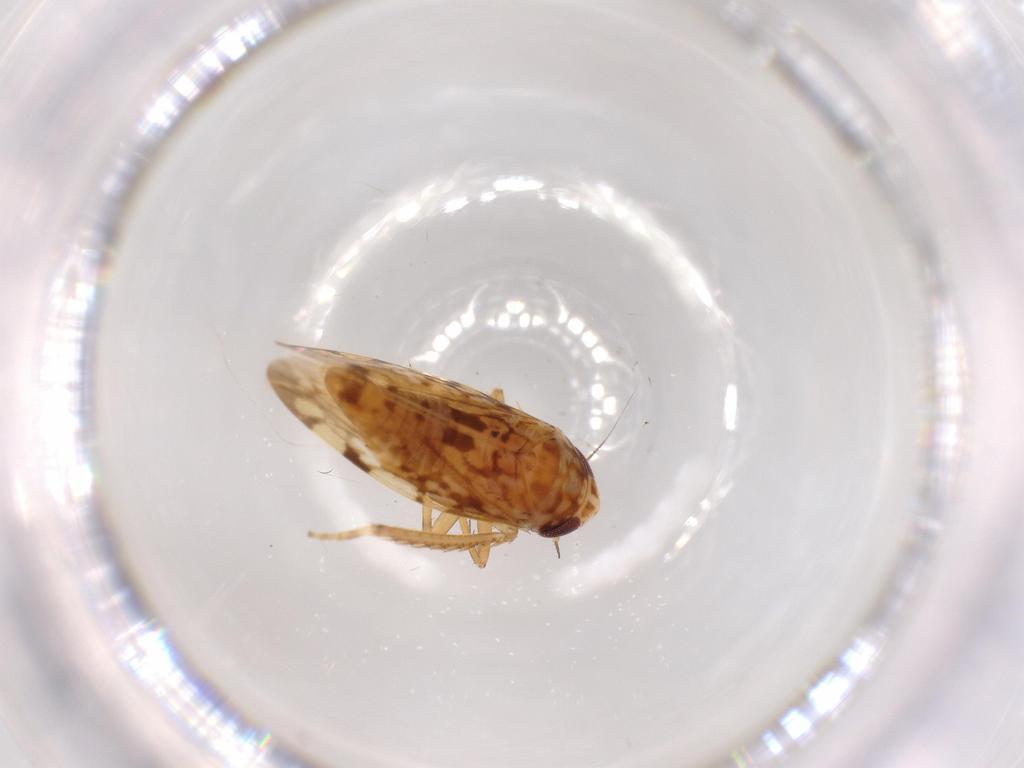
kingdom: Animalia
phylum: Arthropoda
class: Insecta
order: Hemiptera
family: Cicadellidae
